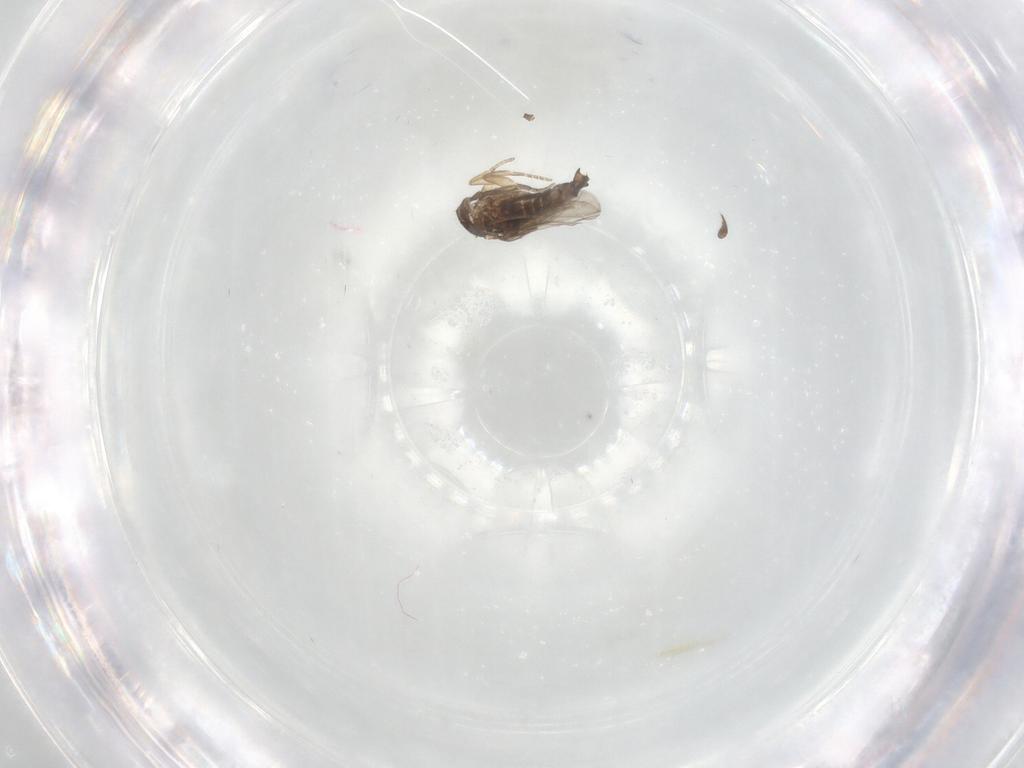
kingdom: Animalia
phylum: Arthropoda
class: Insecta
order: Diptera
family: Phoridae
